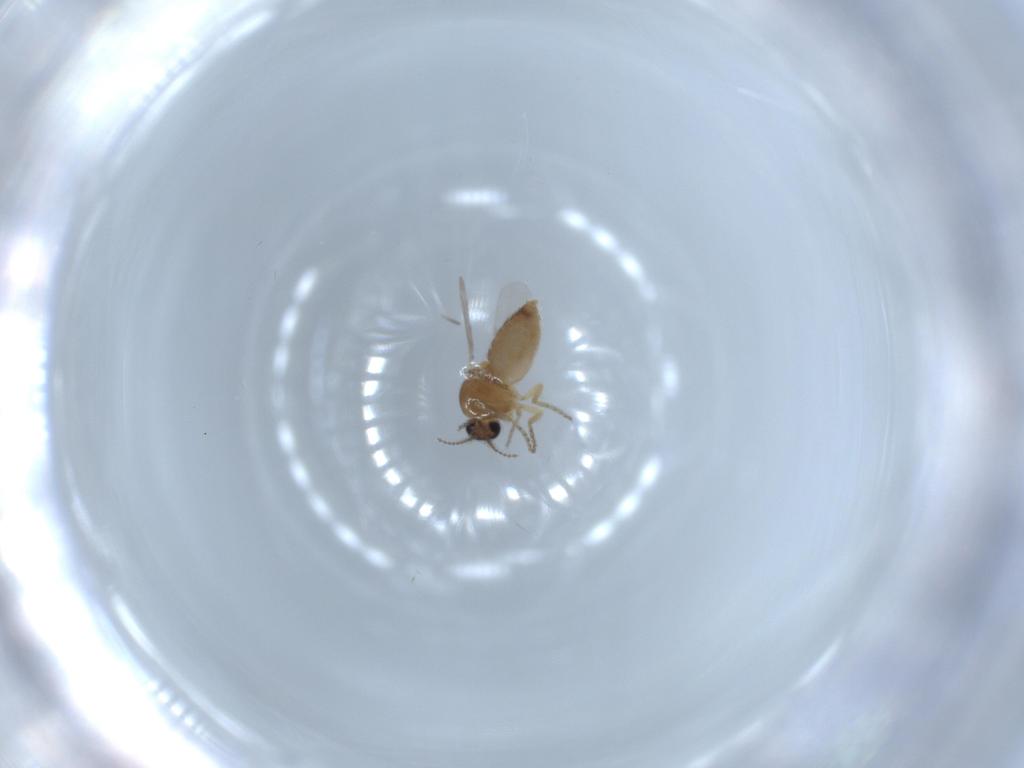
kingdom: Animalia
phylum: Arthropoda
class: Insecta
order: Diptera
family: Ceratopogonidae
